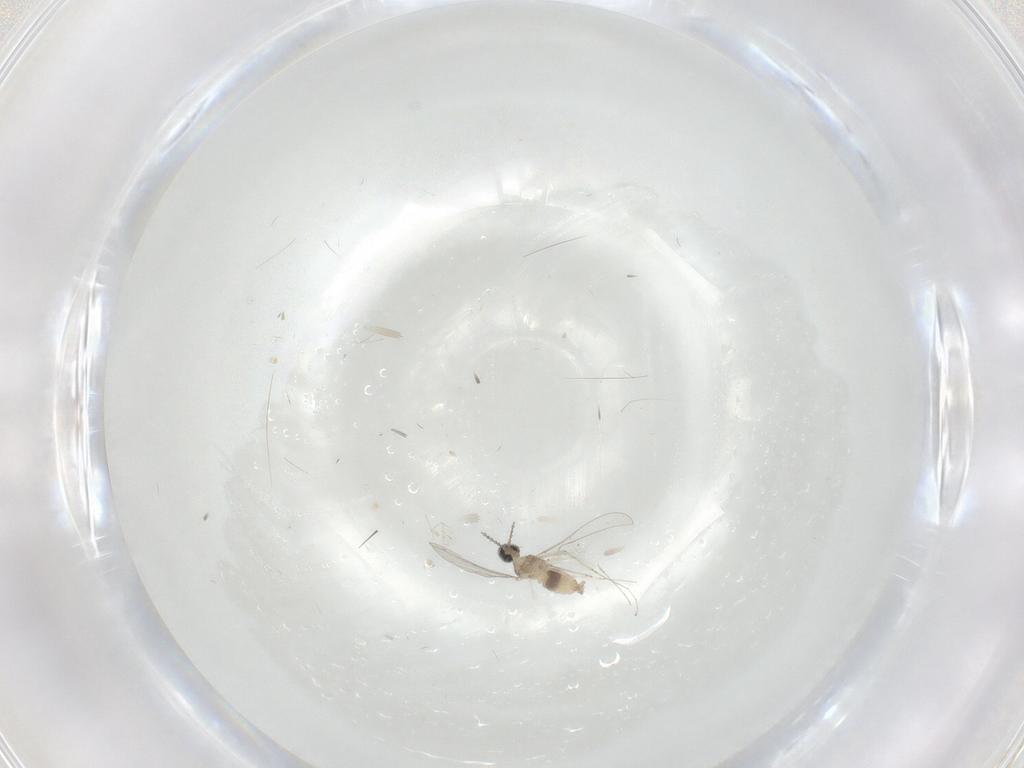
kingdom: Animalia
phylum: Arthropoda
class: Insecta
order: Diptera
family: Cecidomyiidae
